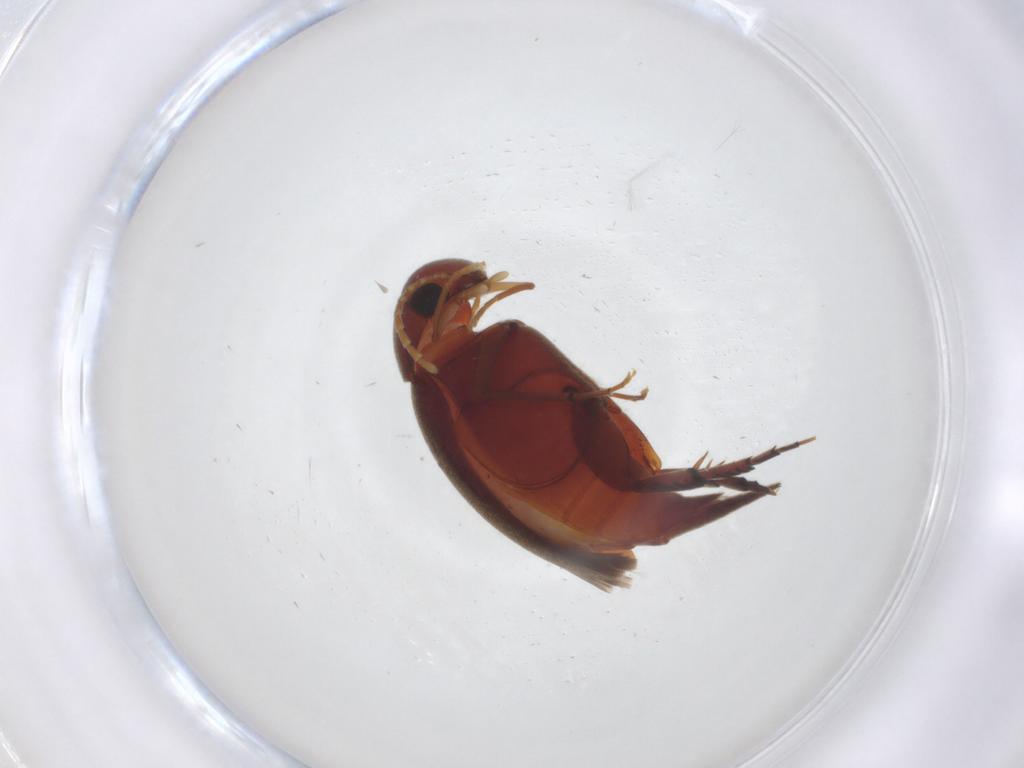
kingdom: Animalia
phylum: Arthropoda
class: Insecta
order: Coleoptera
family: Mordellidae
